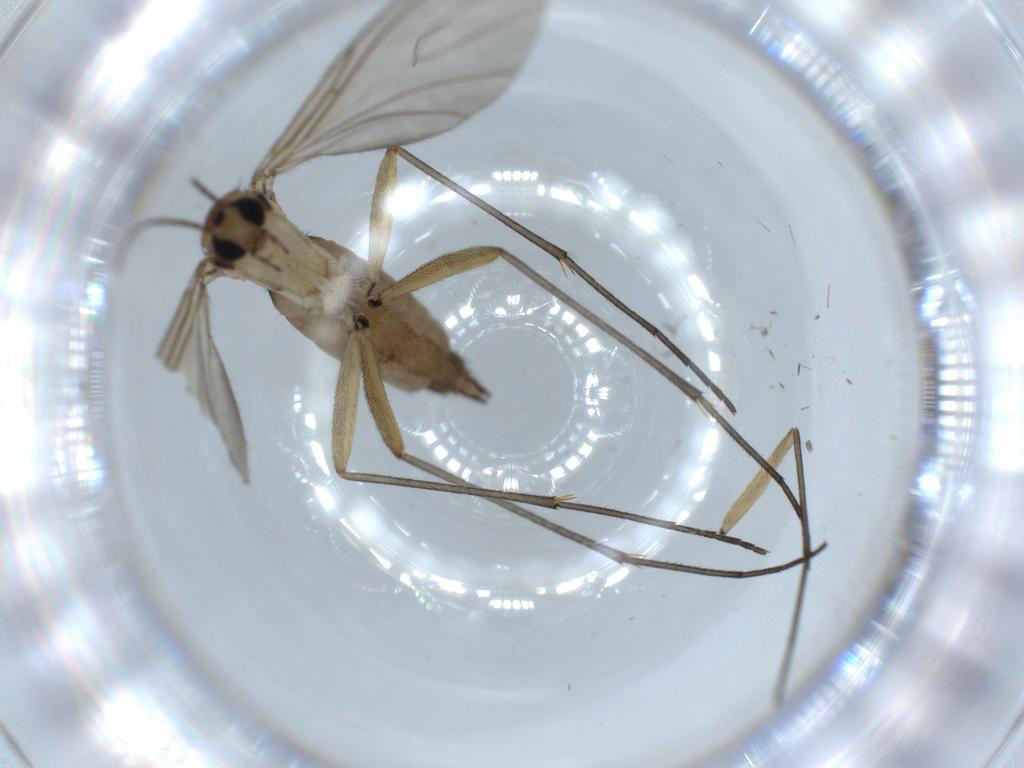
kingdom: Animalia
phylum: Arthropoda
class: Insecta
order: Diptera
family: Sciaridae
